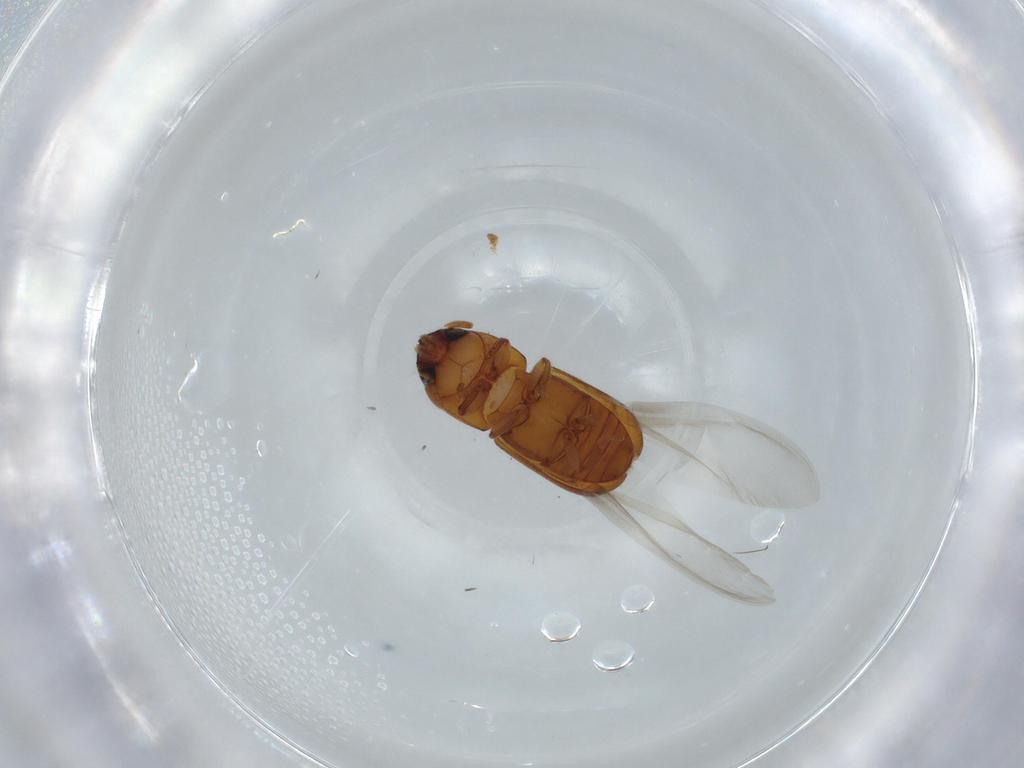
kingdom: Animalia
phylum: Arthropoda
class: Insecta
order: Coleoptera
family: Curculionidae
